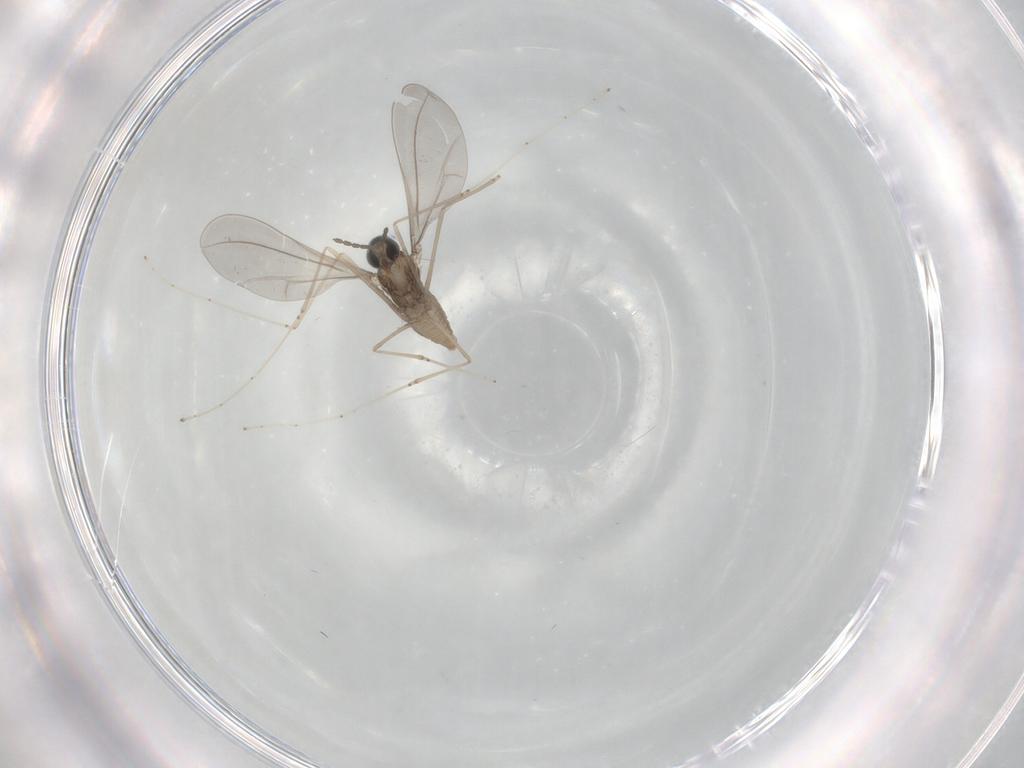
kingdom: Animalia
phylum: Arthropoda
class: Insecta
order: Diptera
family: Cecidomyiidae
